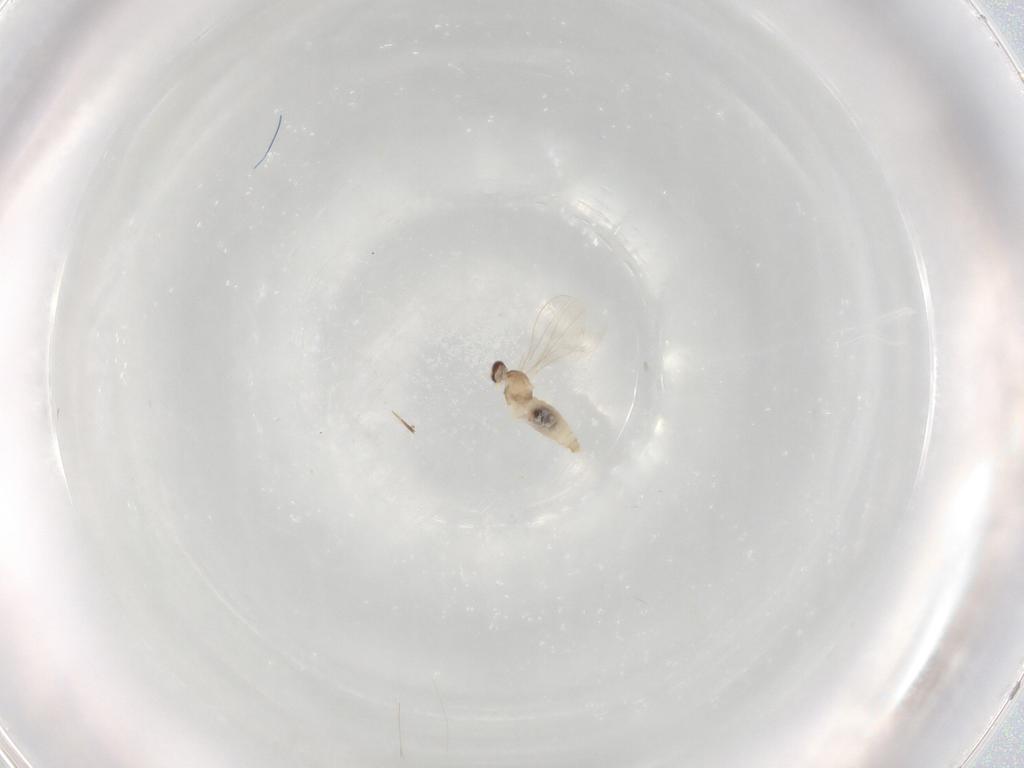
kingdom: Animalia
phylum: Arthropoda
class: Insecta
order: Diptera
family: Cecidomyiidae
